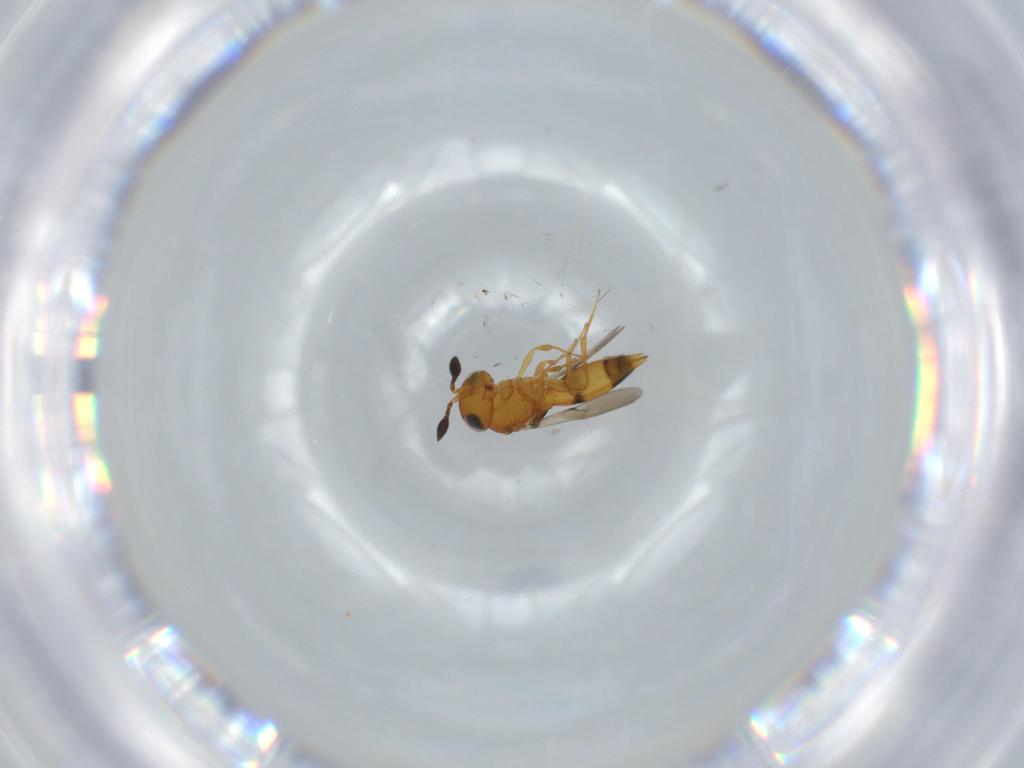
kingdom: Animalia
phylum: Arthropoda
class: Insecta
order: Hymenoptera
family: Scelionidae
